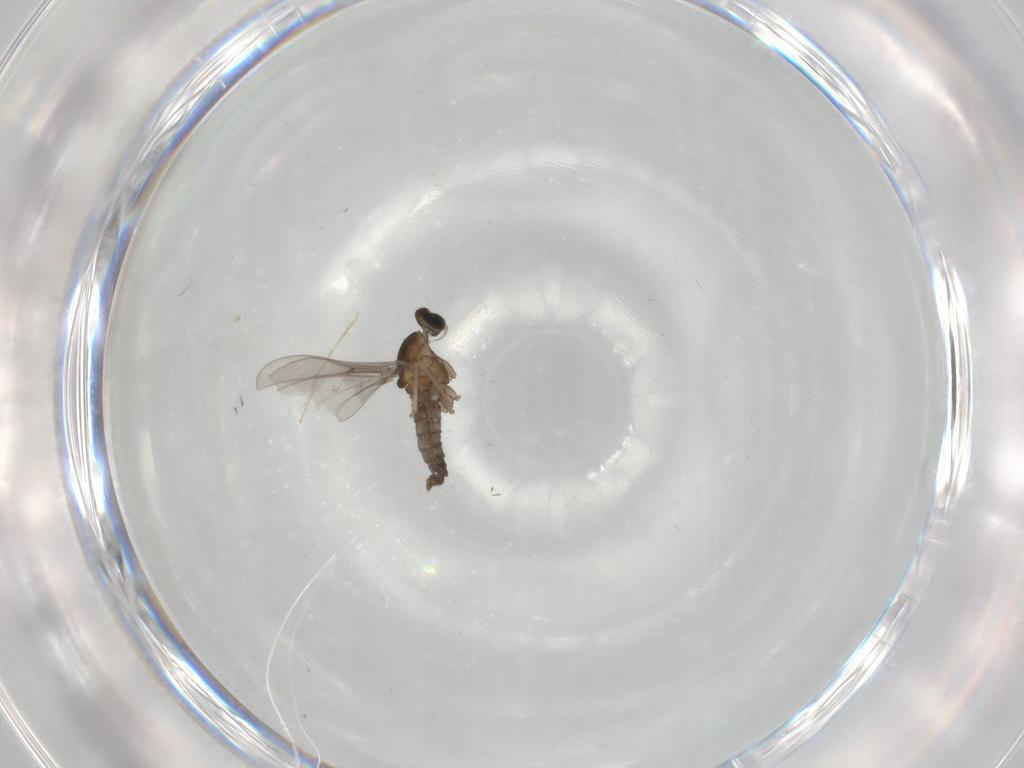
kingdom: Animalia
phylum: Arthropoda
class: Insecta
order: Diptera
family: Chironomidae
